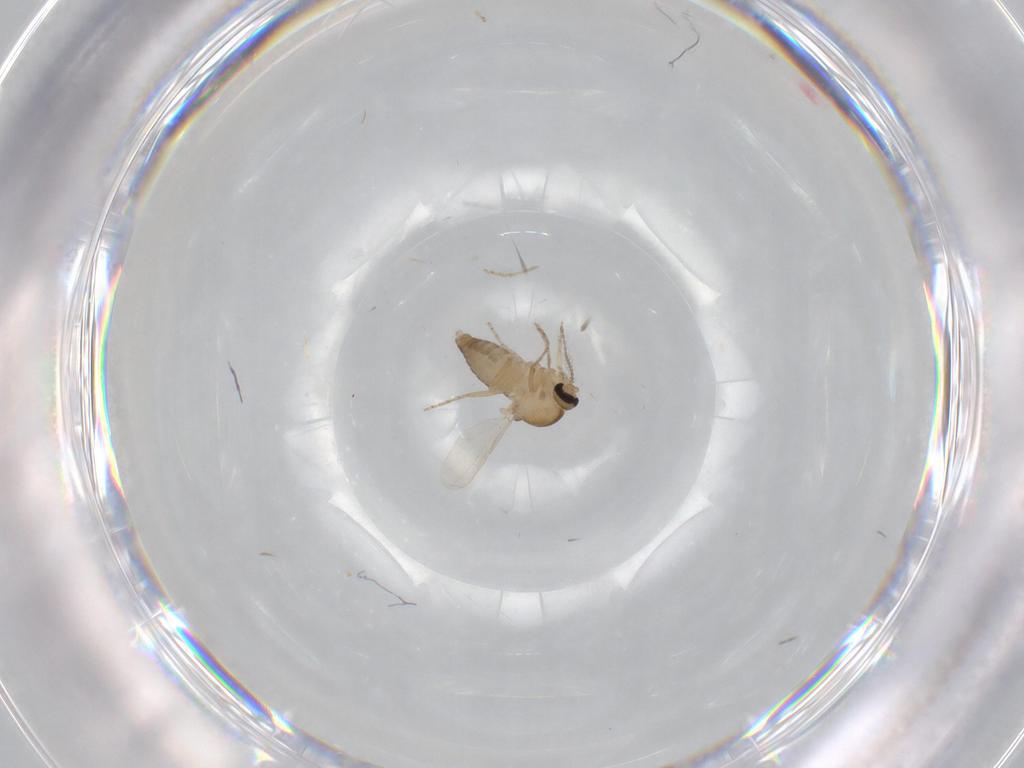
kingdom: Animalia
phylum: Arthropoda
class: Insecta
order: Diptera
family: Ceratopogonidae
